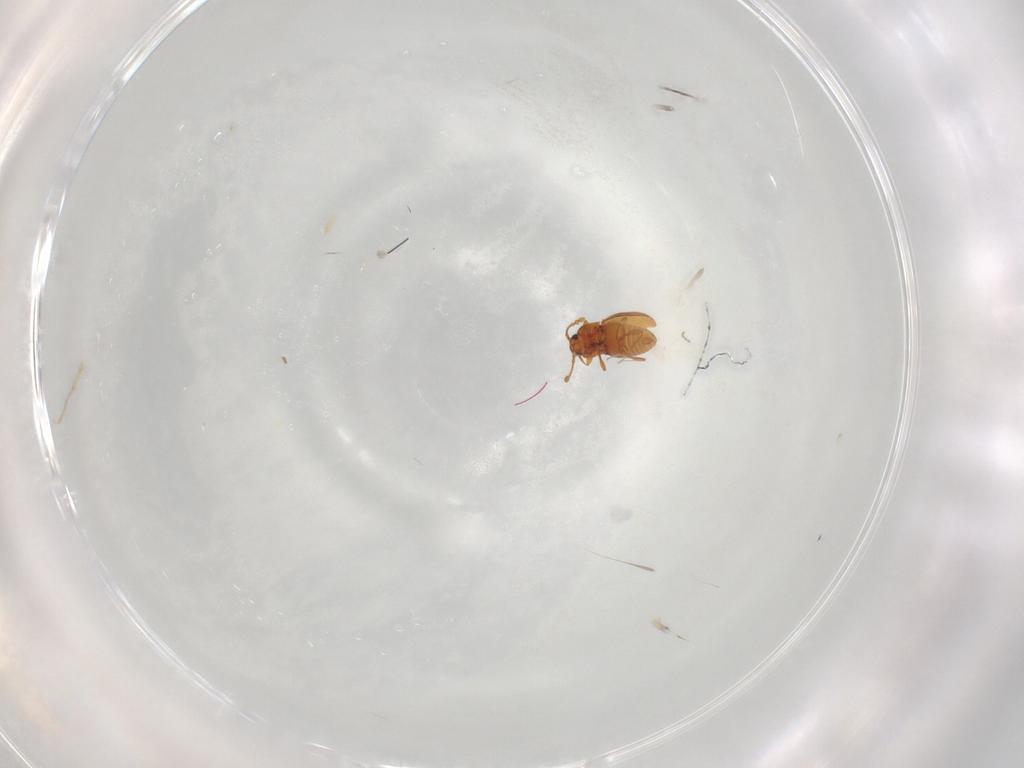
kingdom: Animalia
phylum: Arthropoda
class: Insecta
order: Coleoptera
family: Staphylinidae
